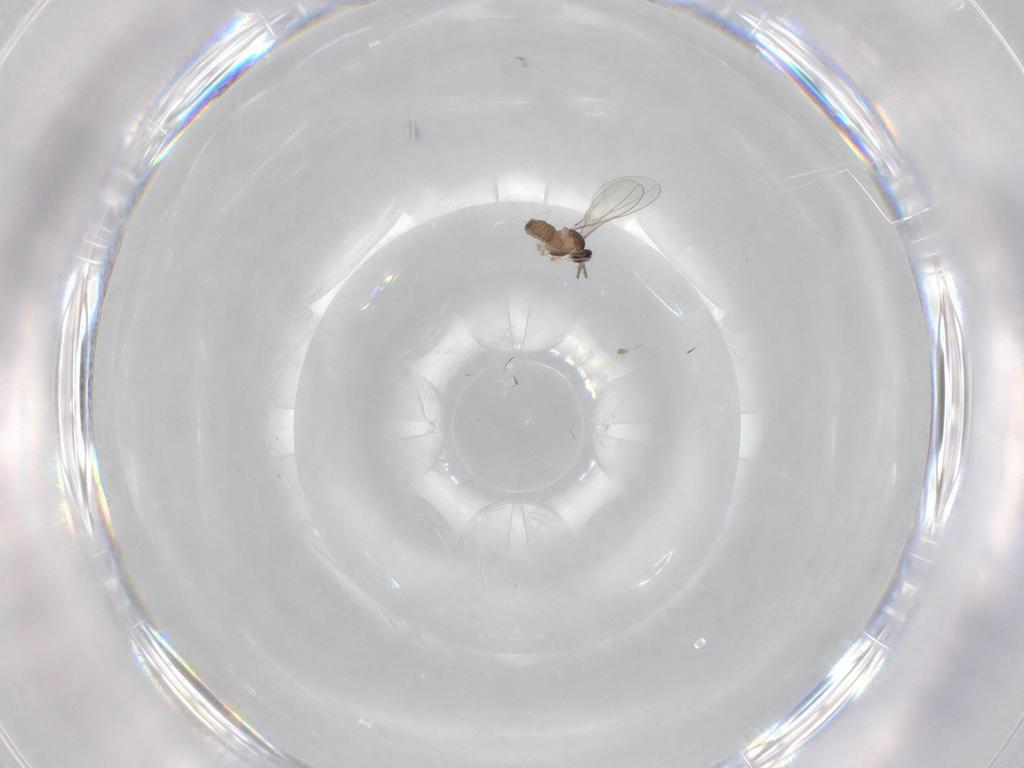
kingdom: Animalia
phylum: Arthropoda
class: Insecta
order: Diptera
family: Cecidomyiidae
